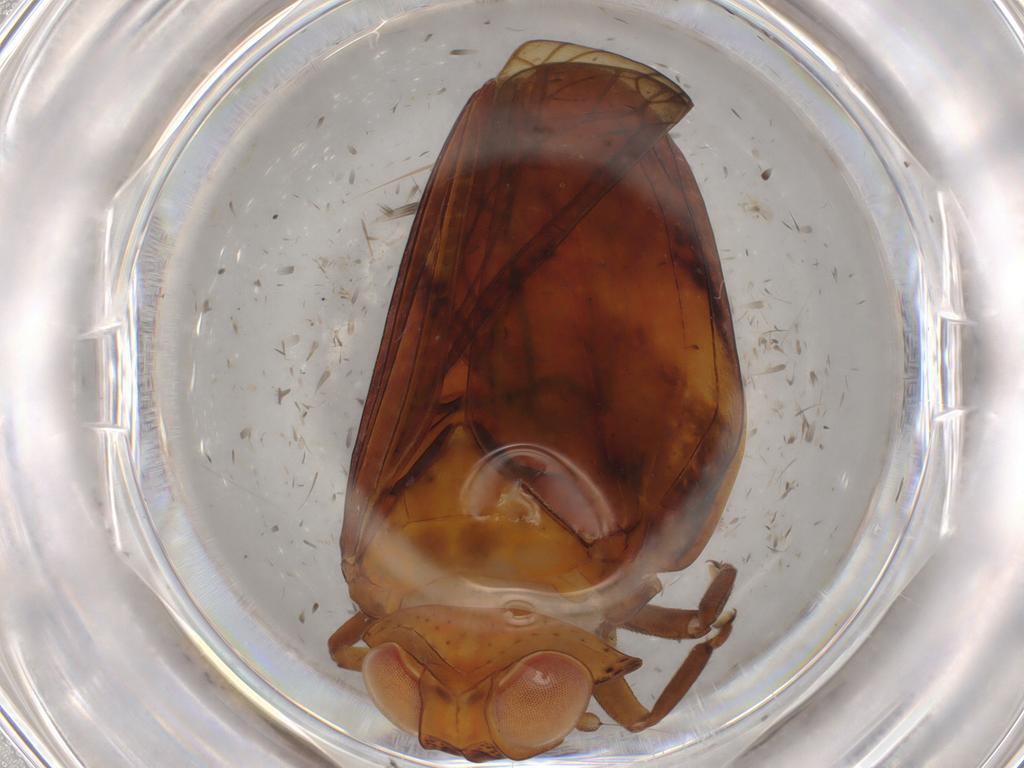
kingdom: Animalia
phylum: Arthropoda
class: Insecta
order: Hemiptera
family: Issidae
